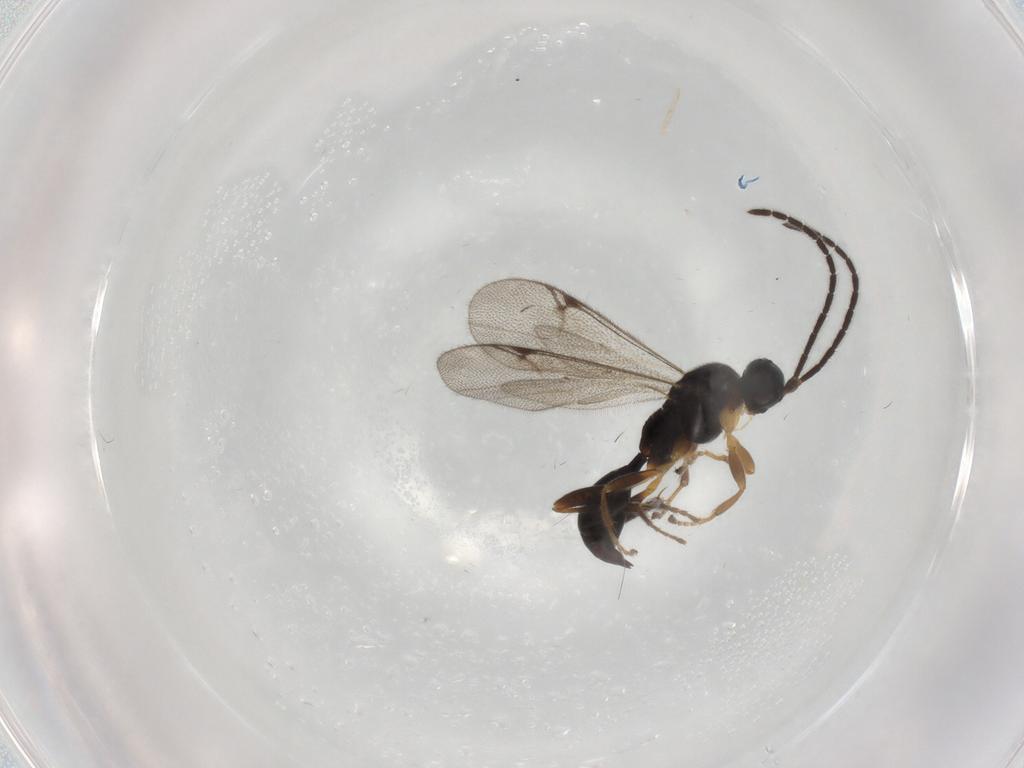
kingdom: Animalia
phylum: Arthropoda
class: Insecta
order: Hymenoptera
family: Proctotrupidae
